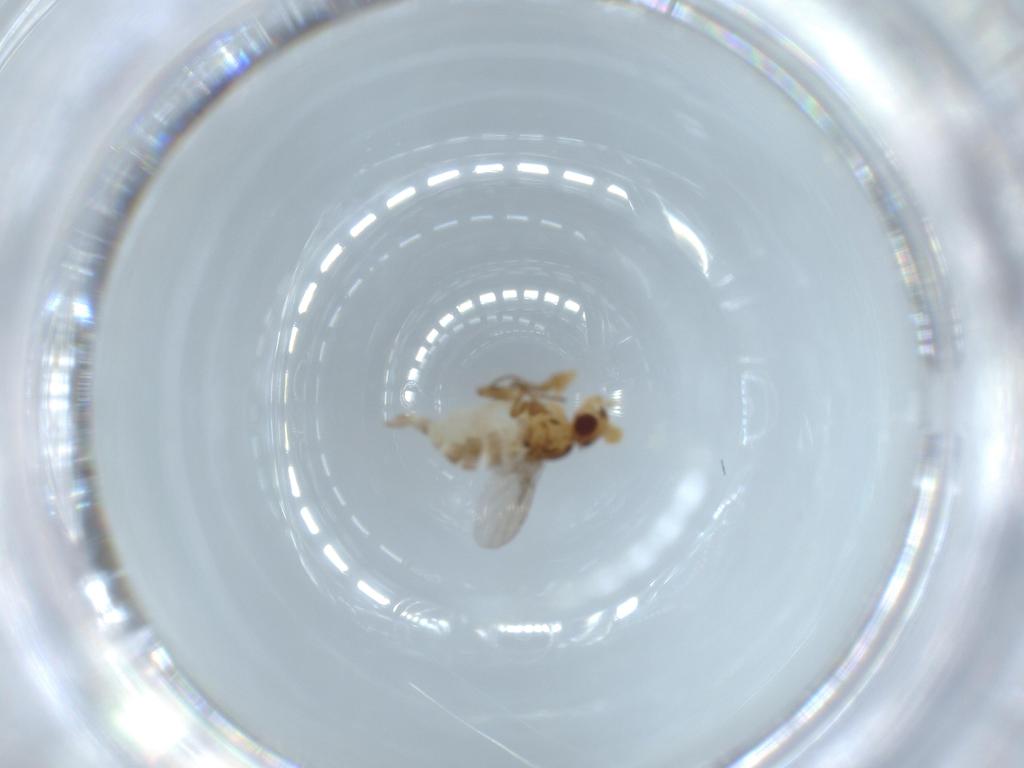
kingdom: Animalia
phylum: Arthropoda
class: Insecta
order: Diptera
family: Chloropidae
